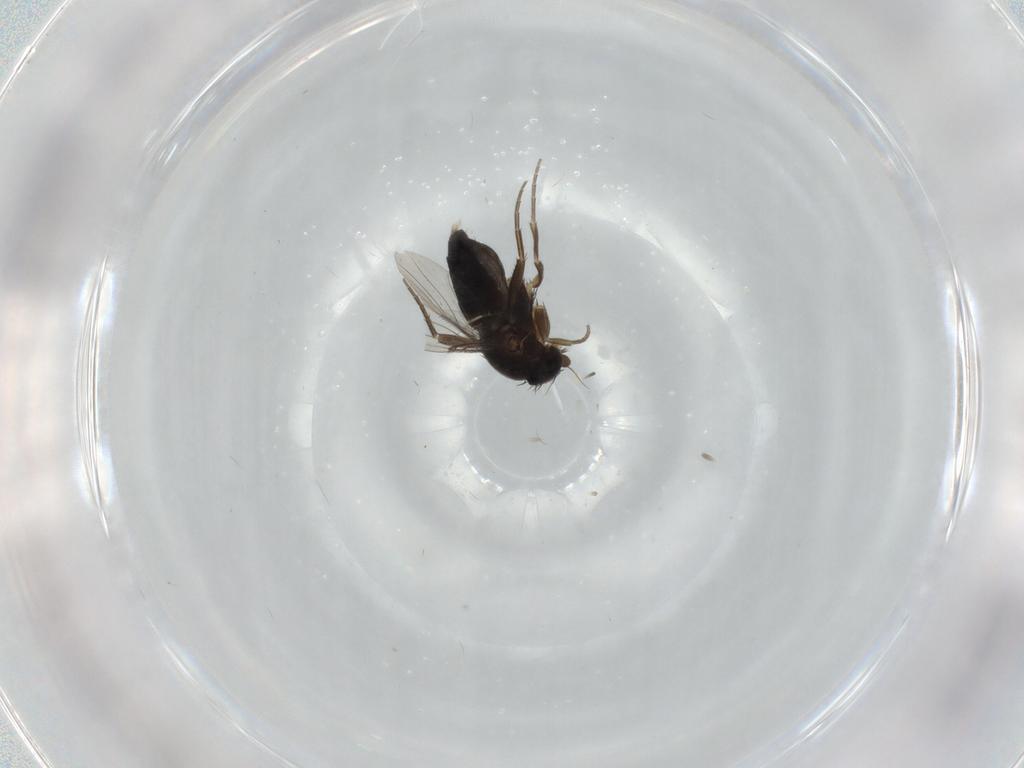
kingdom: Animalia
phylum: Arthropoda
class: Insecta
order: Diptera
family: Phoridae
